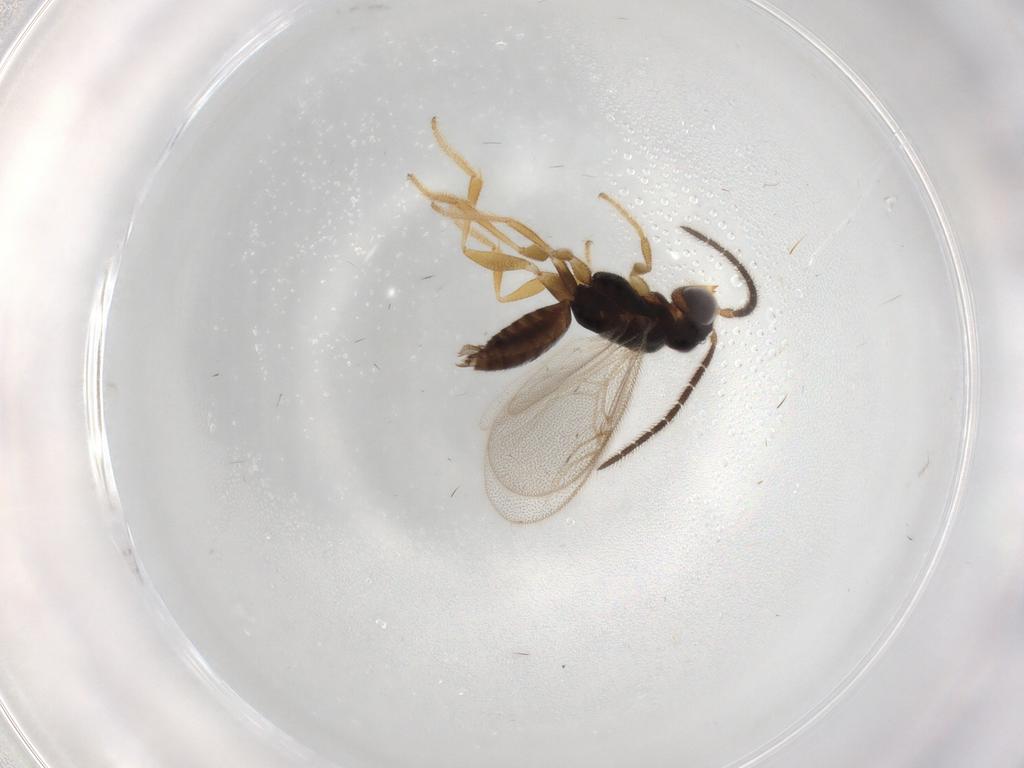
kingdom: Animalia
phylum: Arthropoda
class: Insecta
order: Hymenoptera
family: Dryinidae
